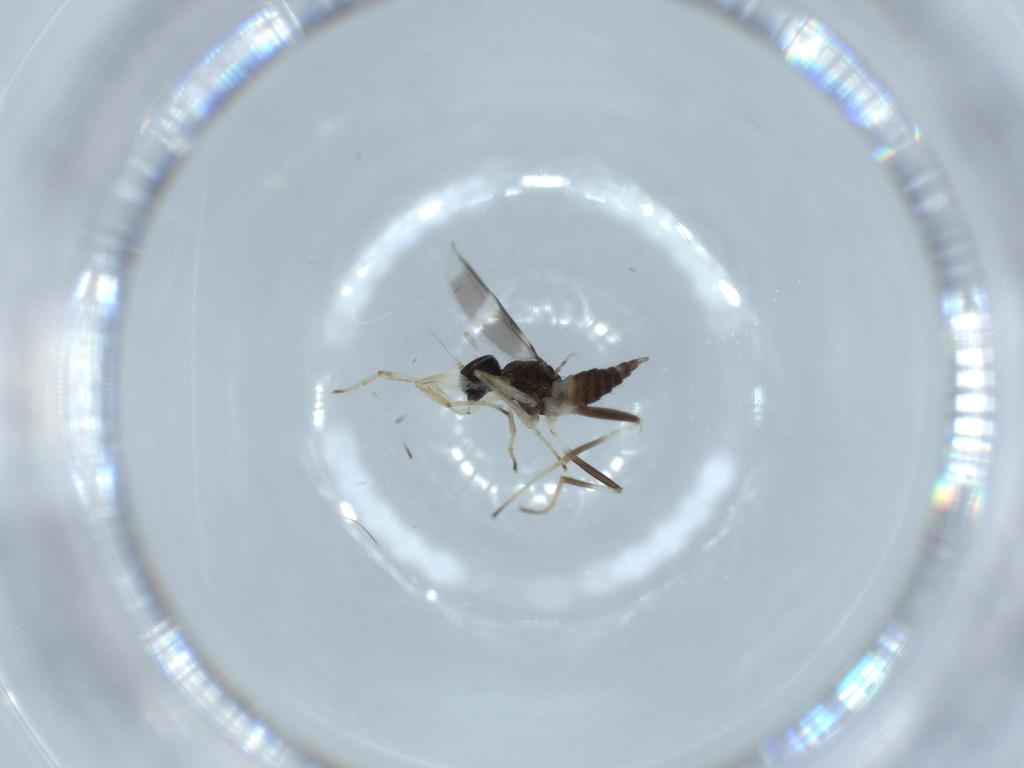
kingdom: Animalia
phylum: Arthropoda
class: Insecta
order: Diptera
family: Hybotidae
